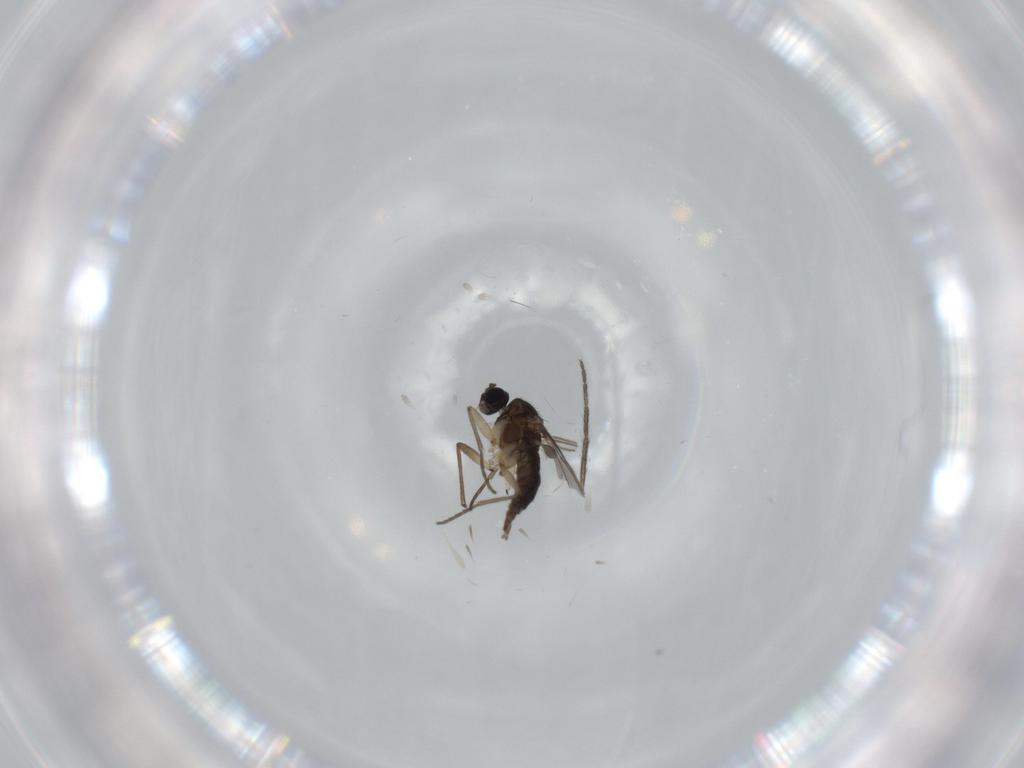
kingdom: Animalia
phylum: Arthropoda
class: Insecta
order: Diptera
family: Sciaridae
